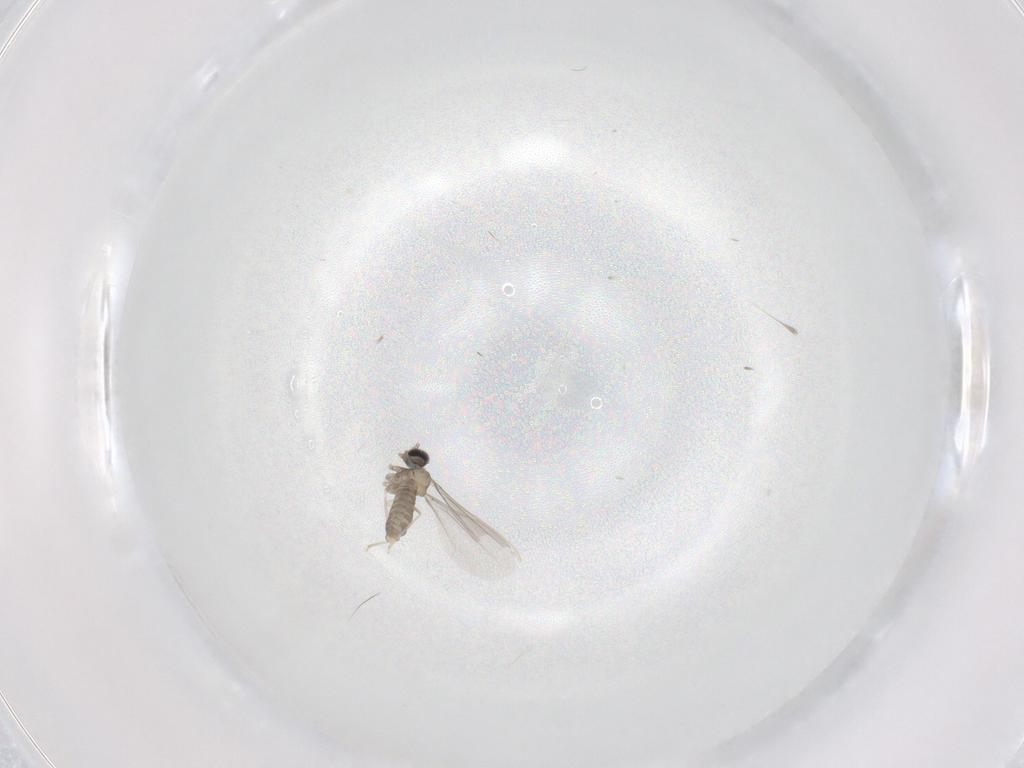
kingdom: Animalia
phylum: Arthropoda
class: Insecta
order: Diptera
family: Cecidomyiidae
